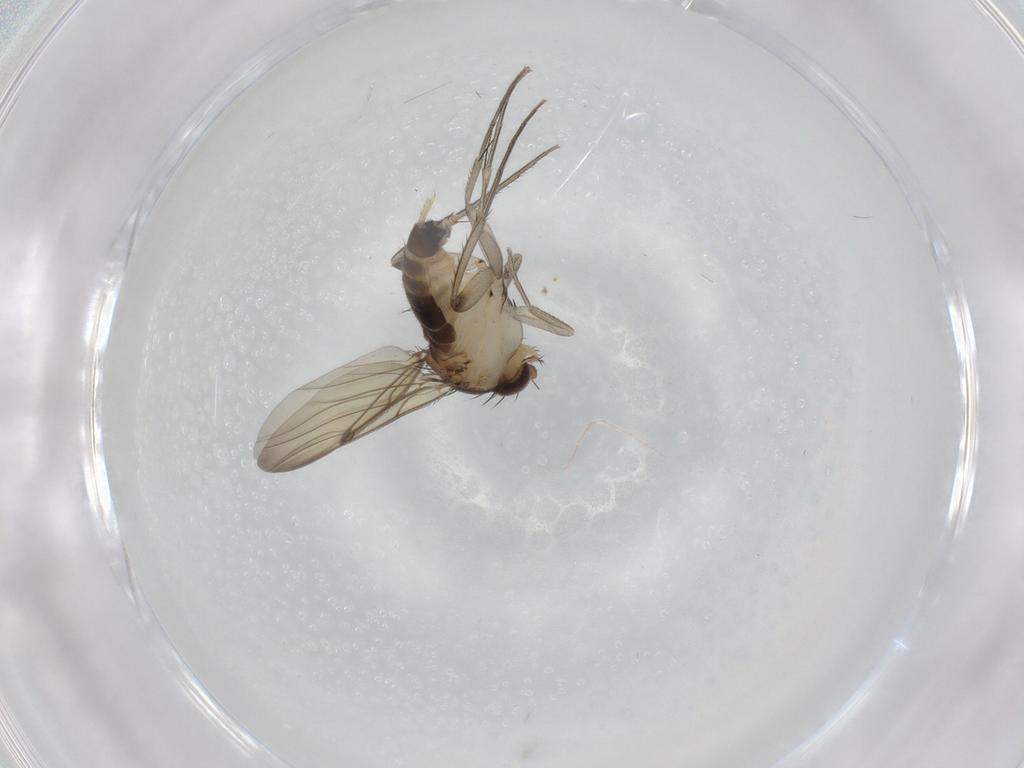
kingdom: Animalia
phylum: Arthropoda
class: Insecta
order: Diptera
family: Phoridae
